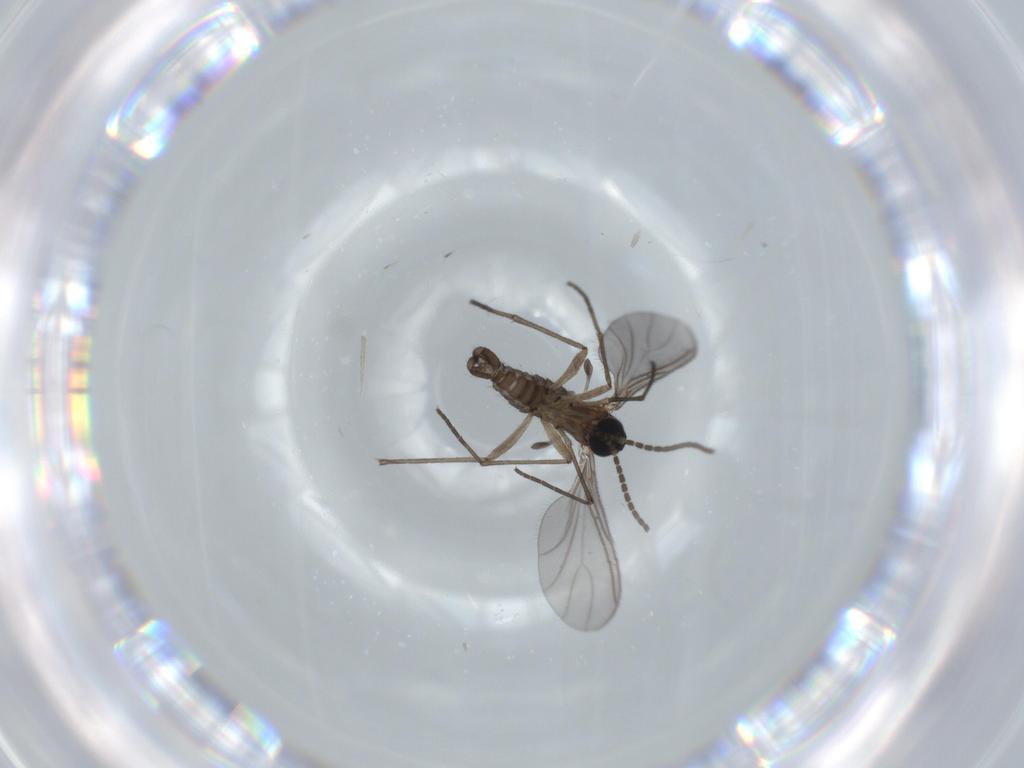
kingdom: Animalia
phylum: Arthropoda
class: Insecta
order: Diptera
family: Sciaridae
